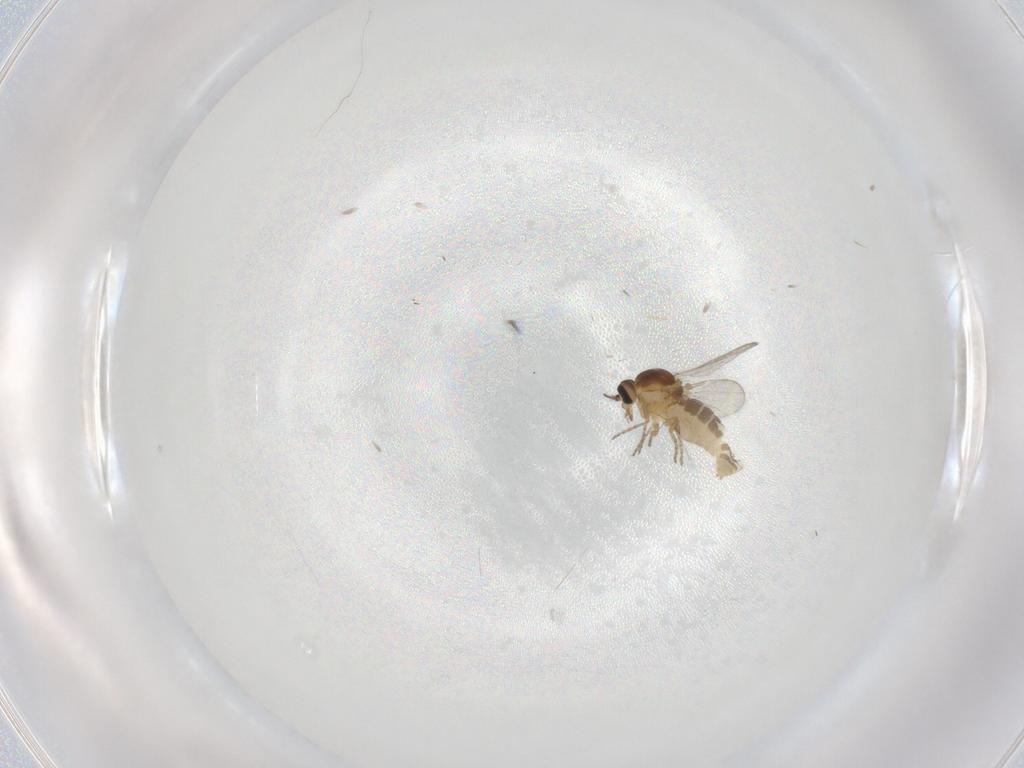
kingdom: Animalia
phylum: Arthropoda
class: Insecta
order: Diptera
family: Ceratopogonidae
